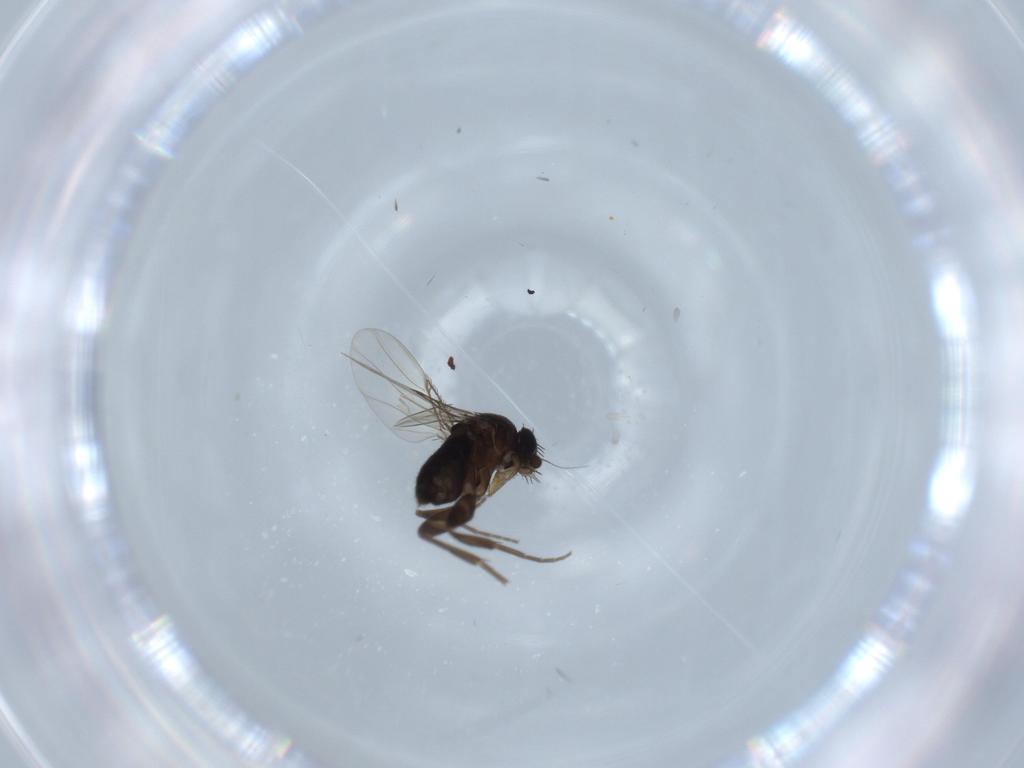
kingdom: Animalia
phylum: Arthropoda
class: Insecta
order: Diptera
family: Phoridae
